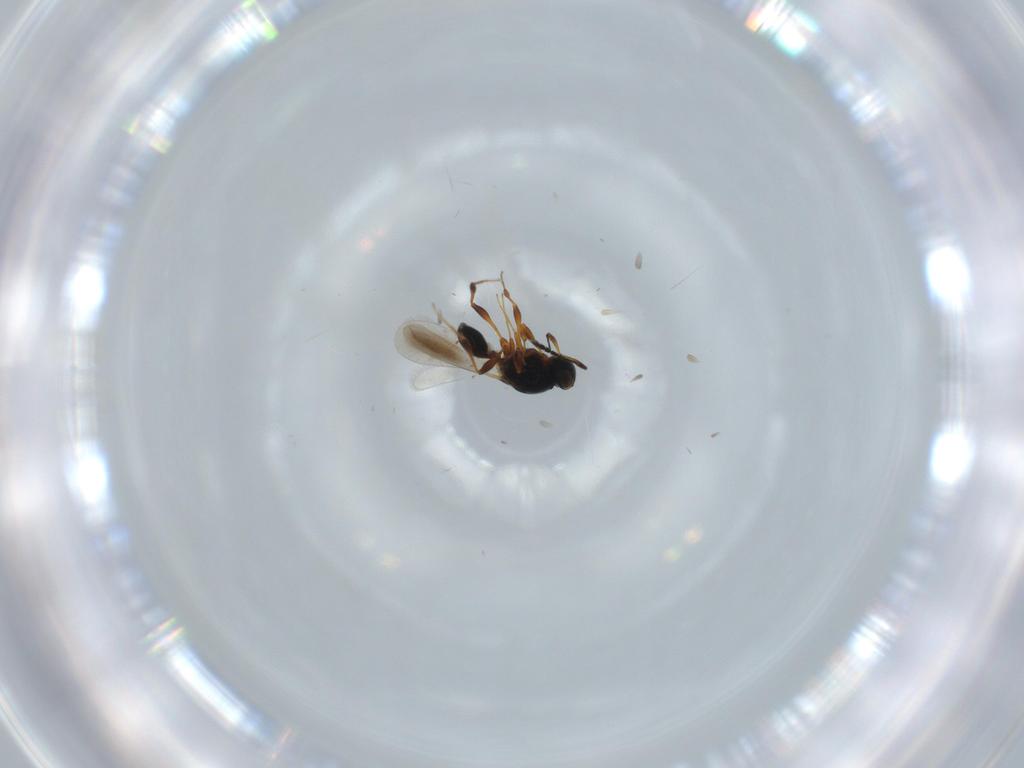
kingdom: Animalia
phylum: Arthropoda
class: Insecta
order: Hymenoptera
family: Platygastridae
